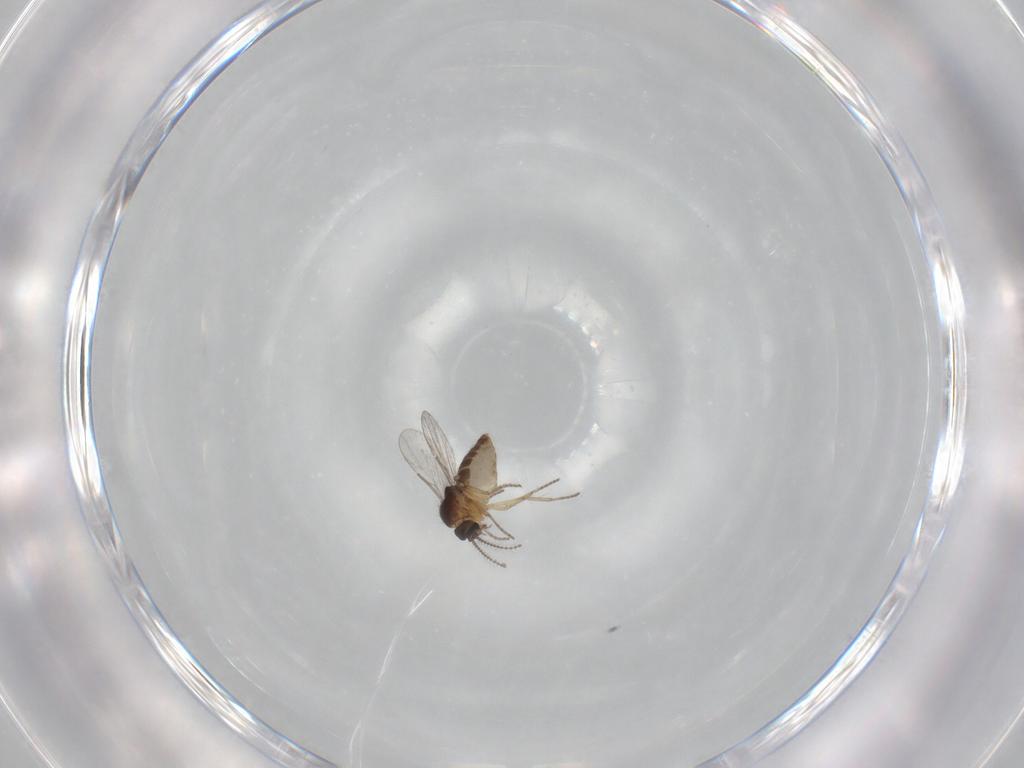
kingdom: Animalia
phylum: Arthropoda
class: Insecta
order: Diptera
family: Ceratopogonidae
